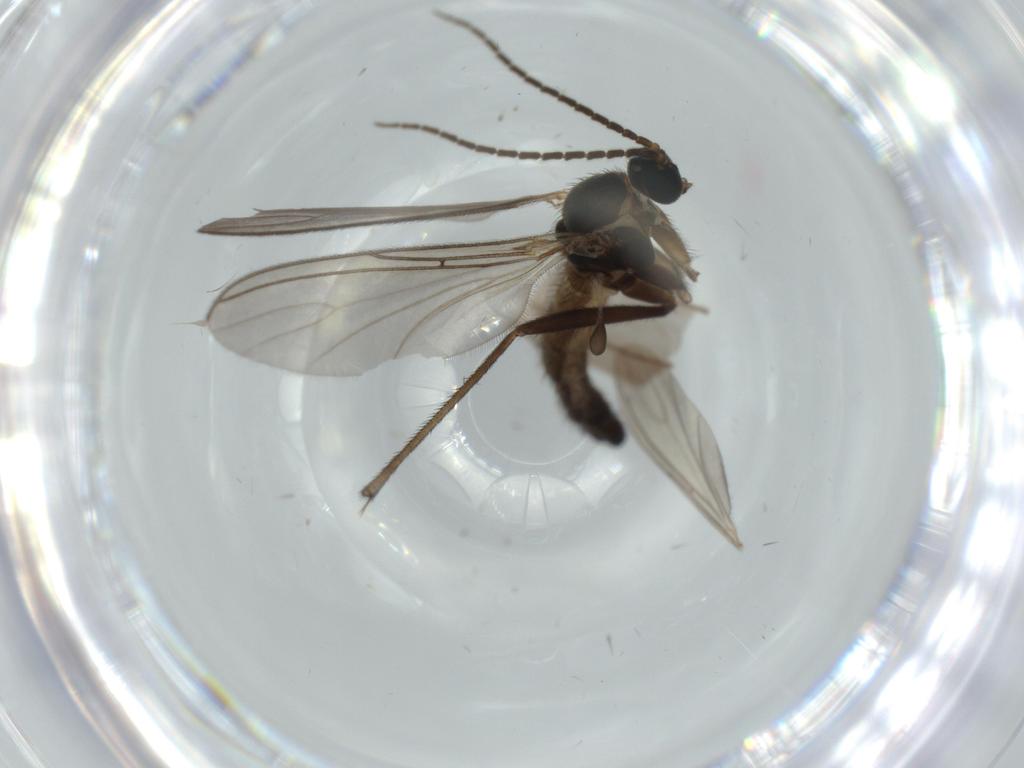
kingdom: Animalia
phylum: Arthropoda
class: Insecta
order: Diptera
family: Sciaridae
